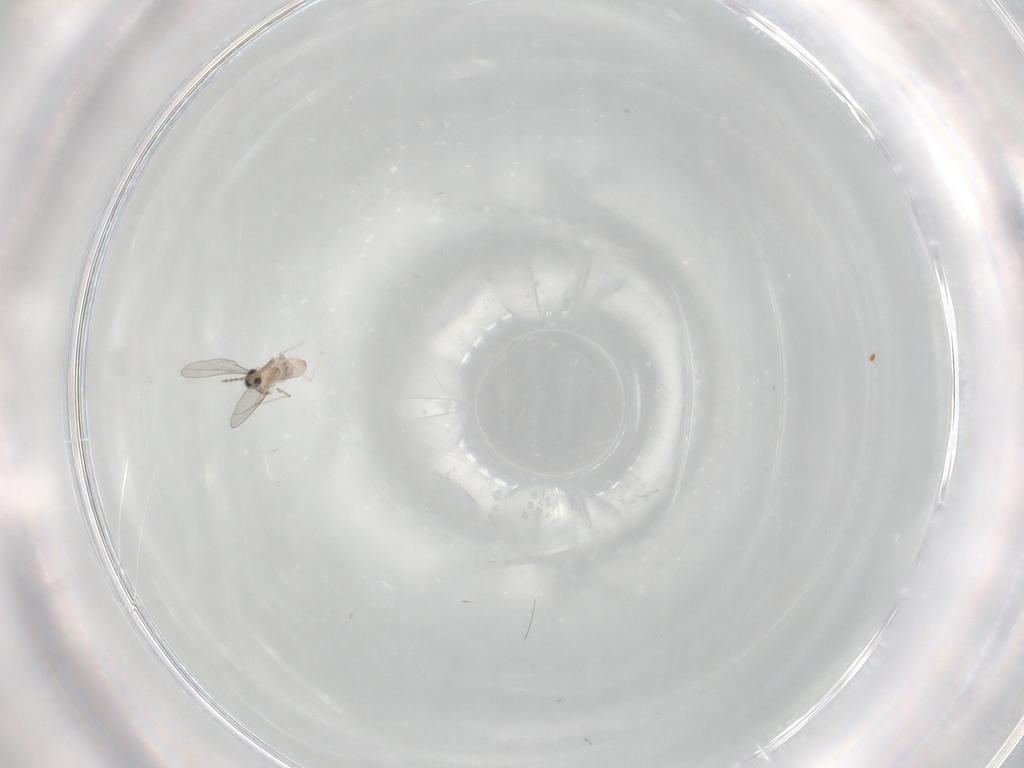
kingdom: Animalia
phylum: Arthropoda
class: Insecta
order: Diptera
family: Cecidomyiidae
